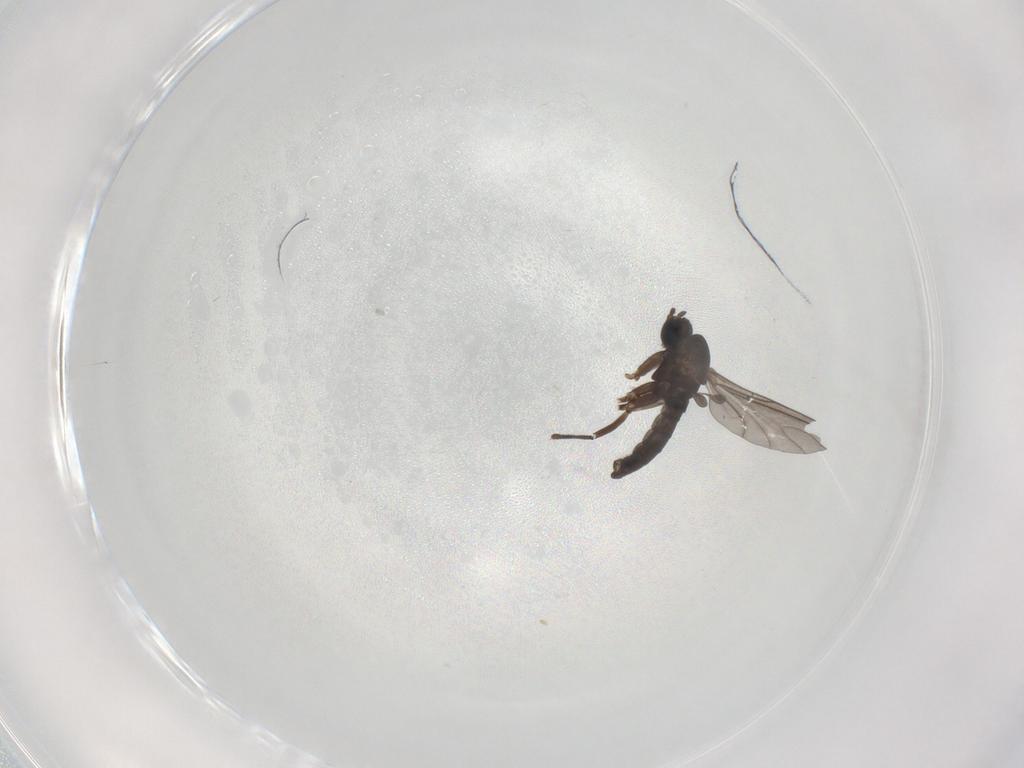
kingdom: Animalia
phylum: Arthropoda
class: Insecta
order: Diptera
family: Sciaridae
